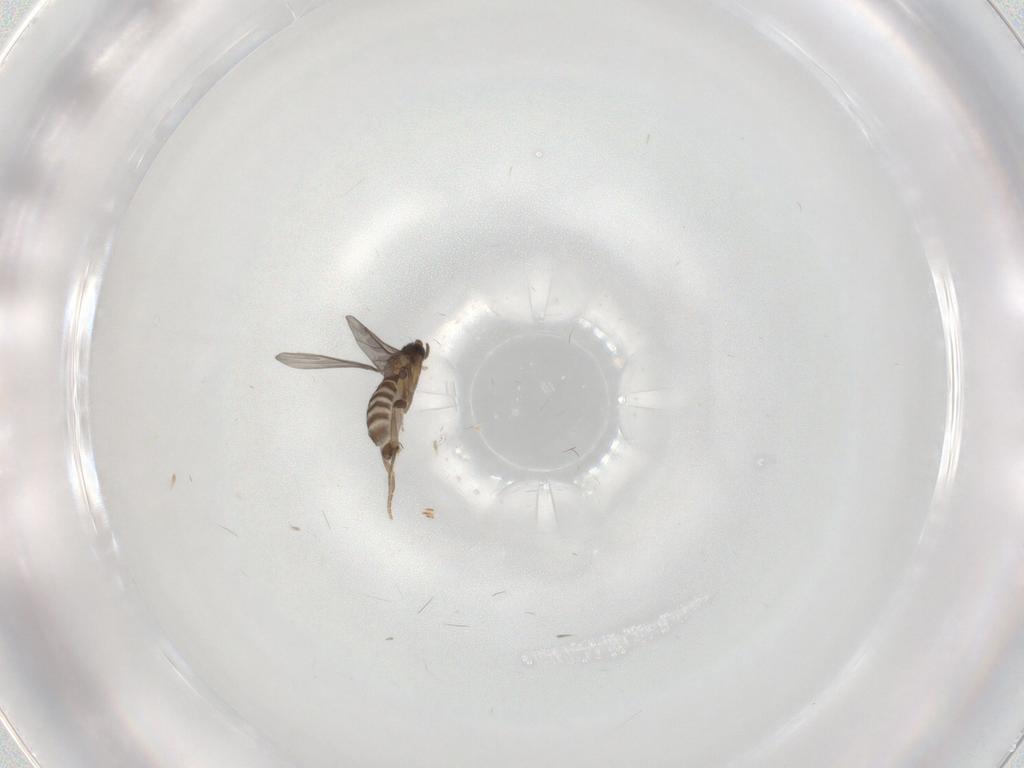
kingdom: Animalia
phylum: Arthropoda
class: Insecta
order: Diptera
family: Chironomidae
